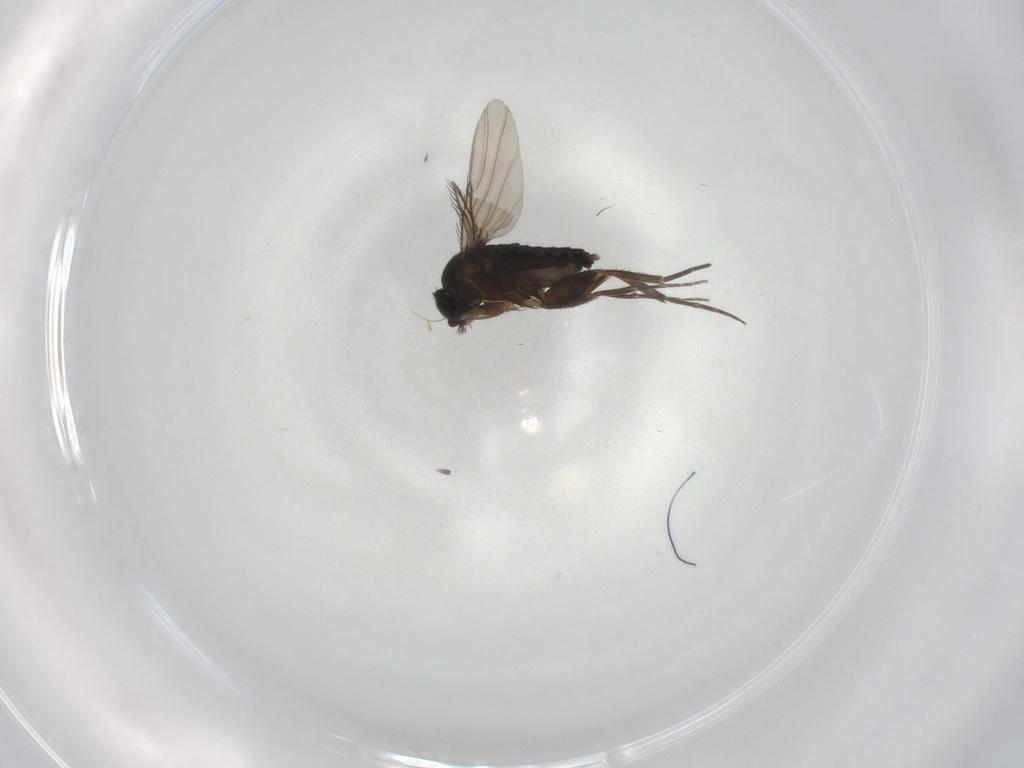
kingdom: Animalia
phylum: Arthropoda
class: Insecta
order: Diptera
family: Phoridae
